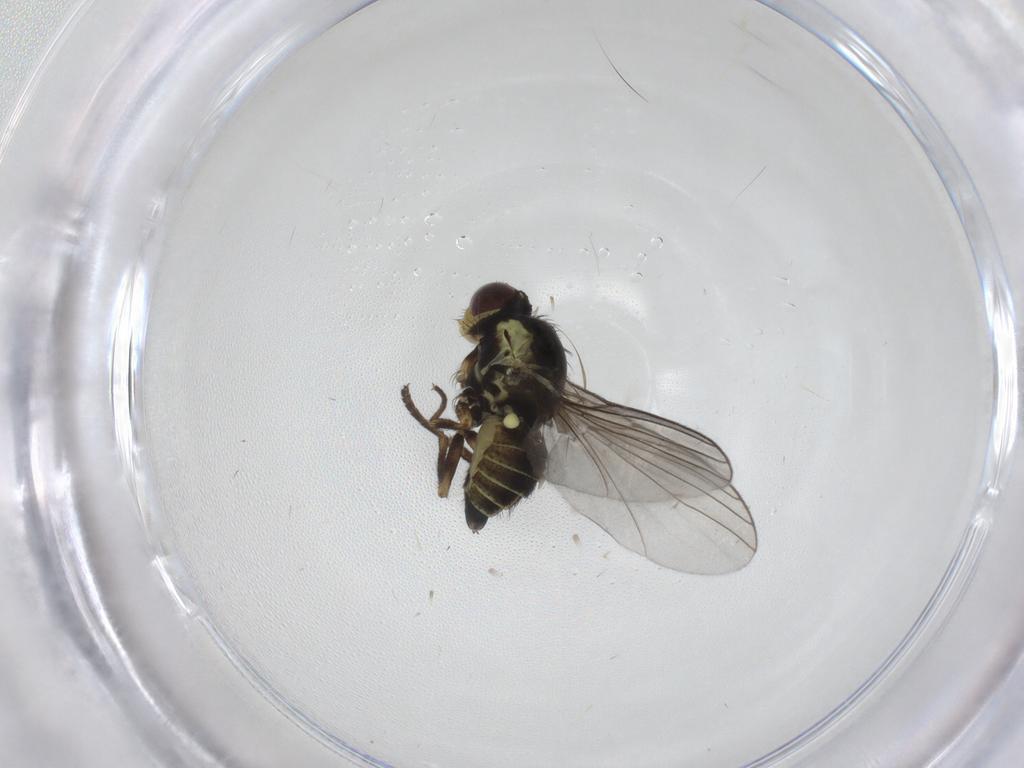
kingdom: Animalia
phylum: Arthropoda
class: Insecta
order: Diptera
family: Agromyzidae
